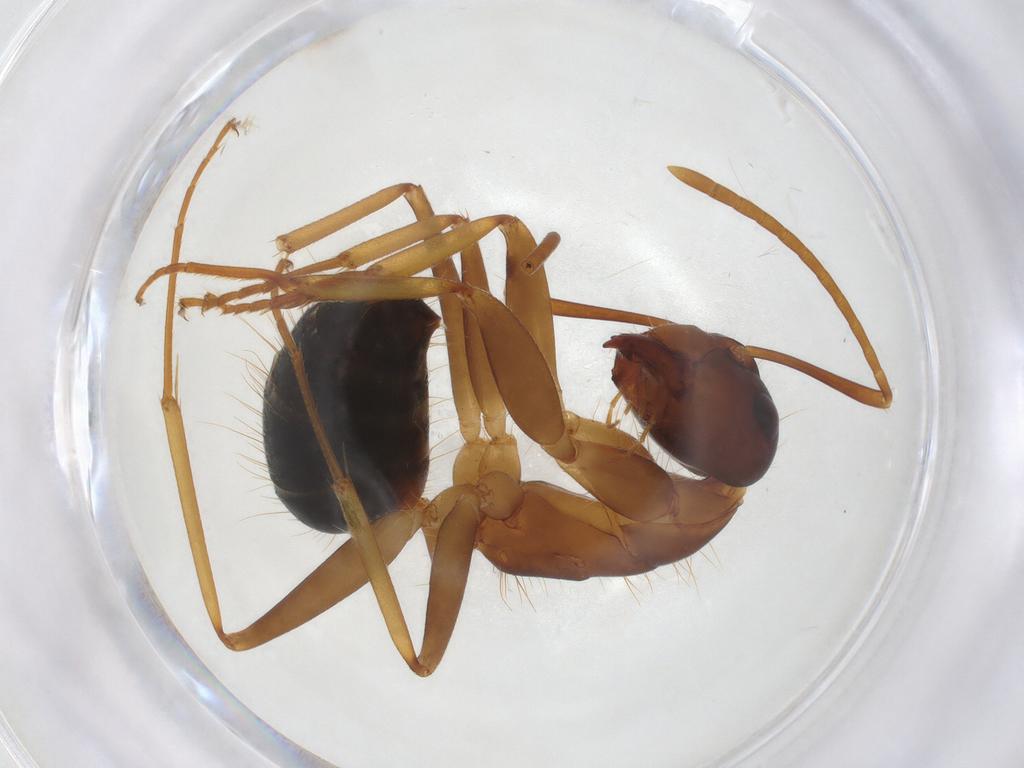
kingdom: Animalia
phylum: Arthropoda
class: Insecta
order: Hymenoptera
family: Formicidae
